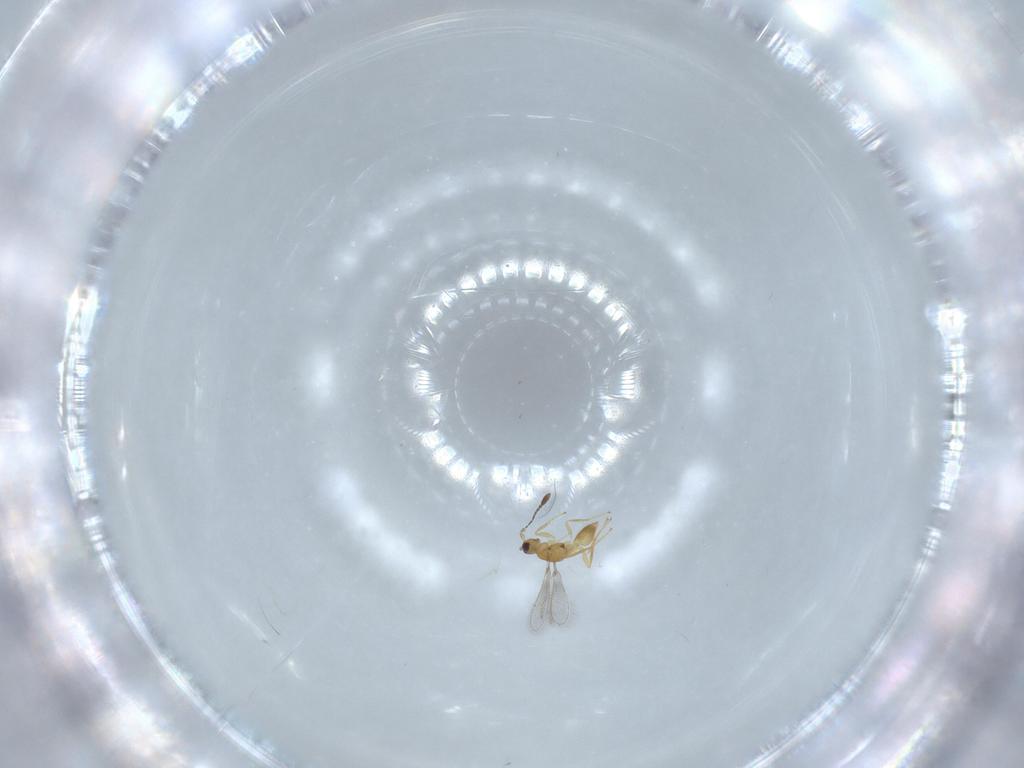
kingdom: Animalia
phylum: Arthropoda
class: Insecta
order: Hymenoptera
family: Mymaridae
